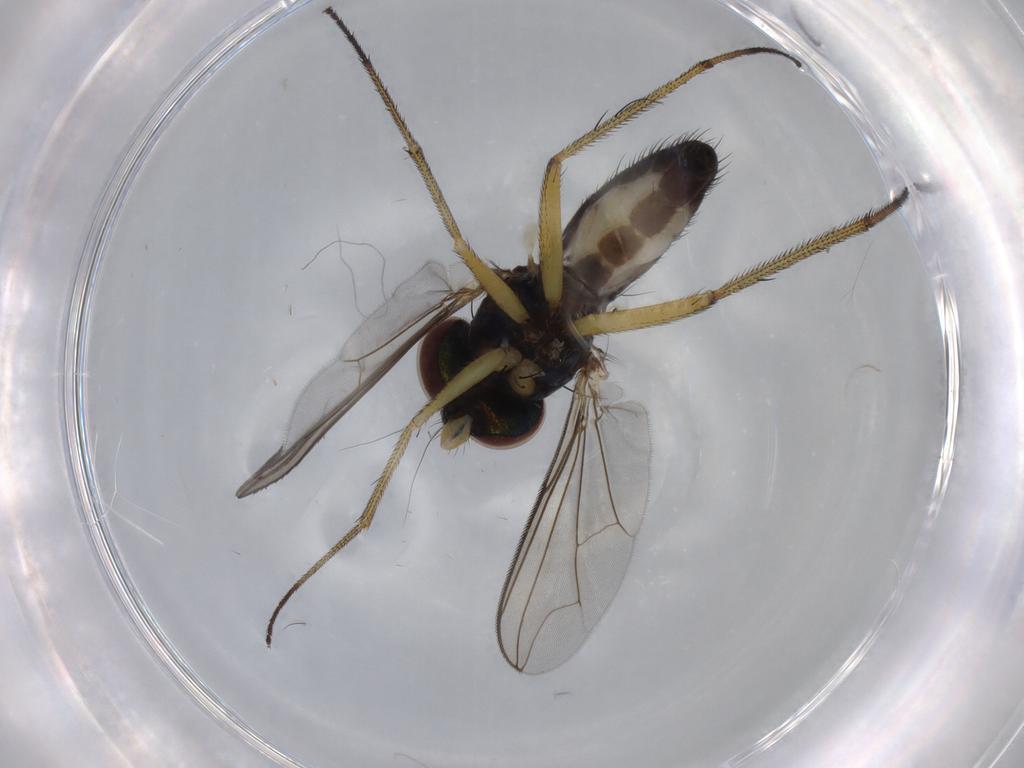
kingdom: Animalia
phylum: Arthropoda
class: Insecta
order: Diptera
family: Dolichopodidae
